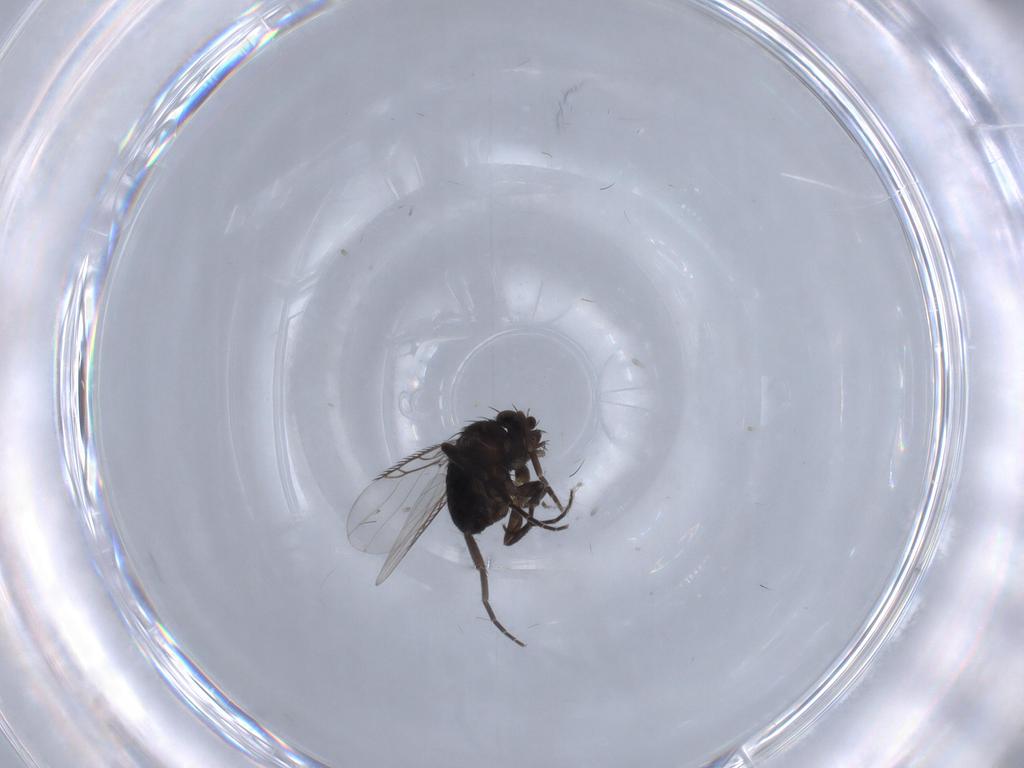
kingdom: Animalia
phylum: Arthropoda
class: Insecta
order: Diptera
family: Phoridae
